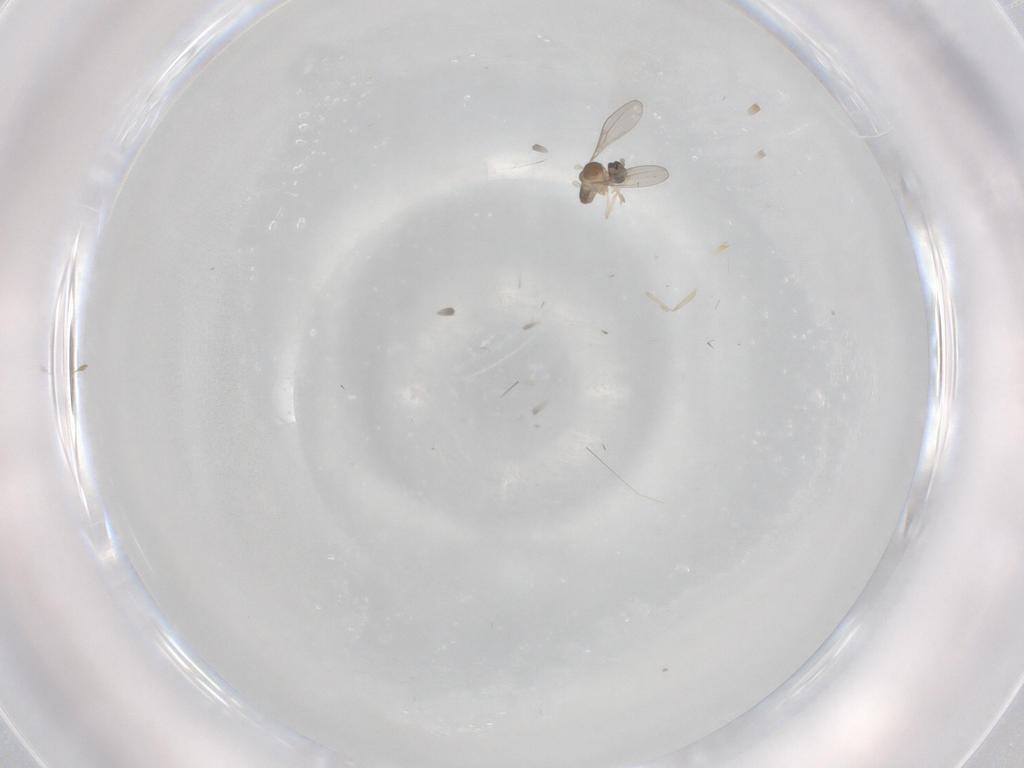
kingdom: Animalia
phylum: Arthropoda
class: Insecta
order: Diptera
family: Cecidomyiidae
